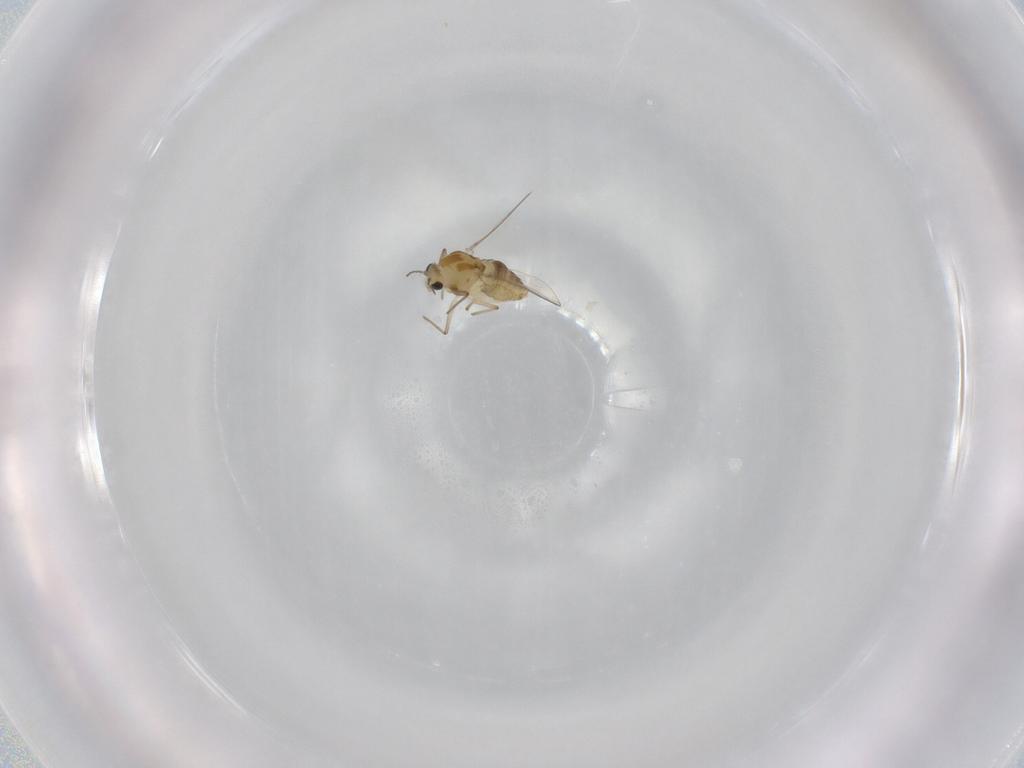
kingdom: Animalia
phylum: Arthropoda
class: Insecta
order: Diptera
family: Chironomidae
